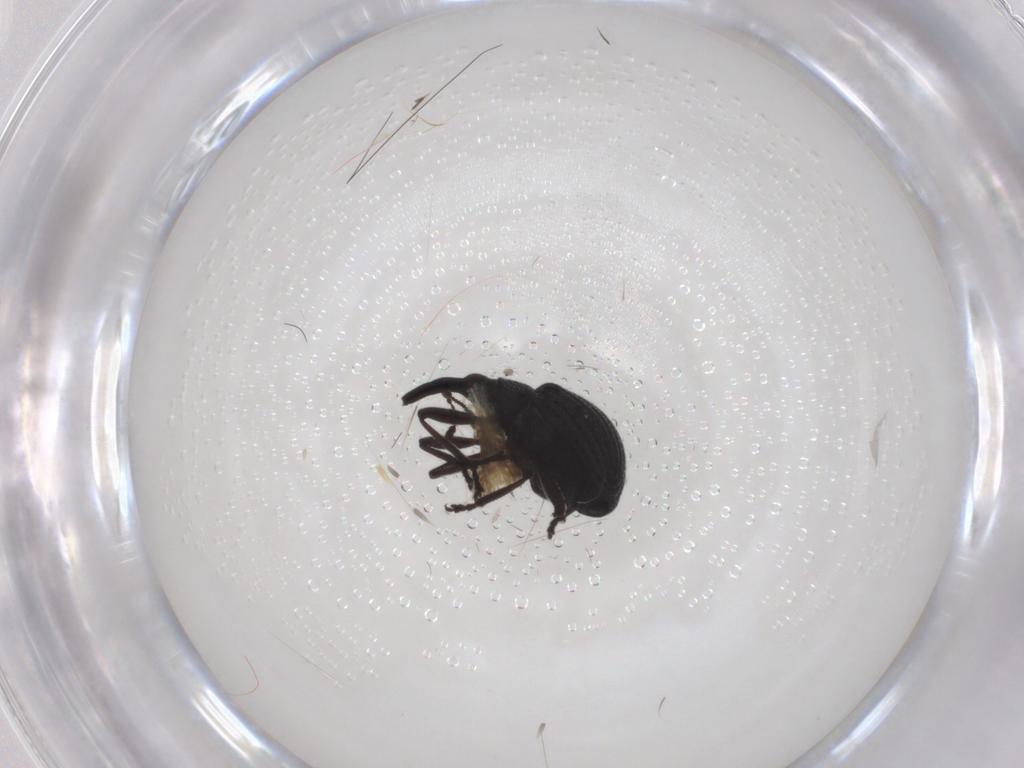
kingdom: Animalia
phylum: Arthropoda
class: Insecta
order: Coleoptera
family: Brentidae
